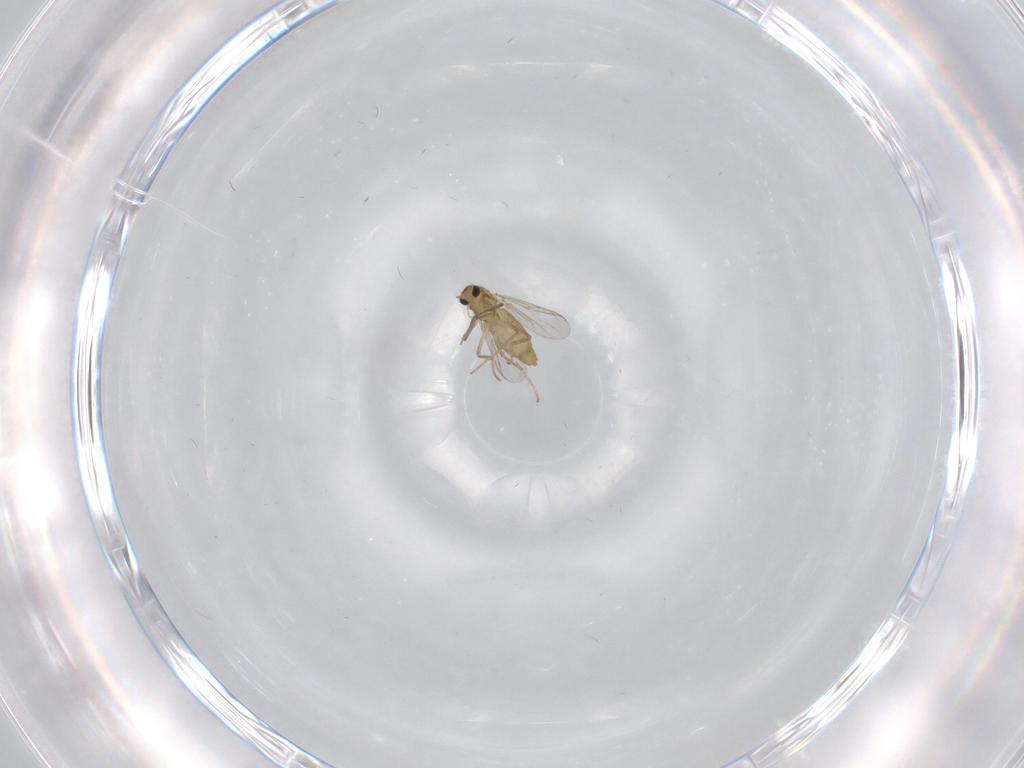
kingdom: Animalia
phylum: Arthropoda
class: Insecta
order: Diptera
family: Chironomidae
